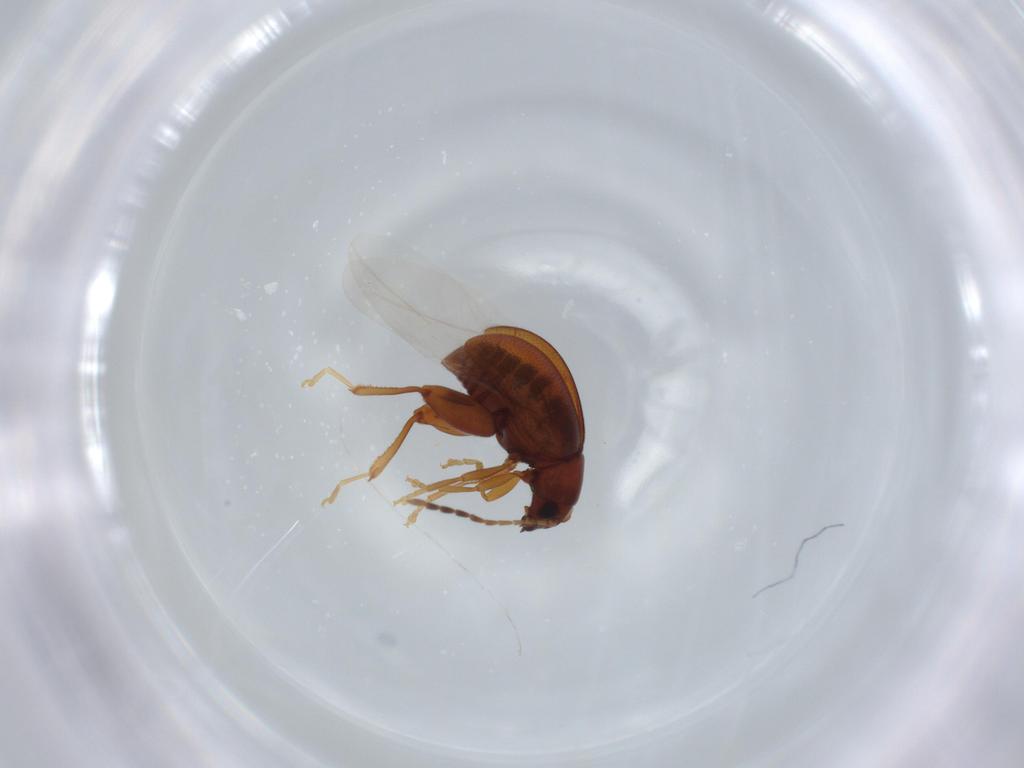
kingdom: Animalia
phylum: Arthropoda
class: Insecta
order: Coleoptera
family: Chrysomelidae
